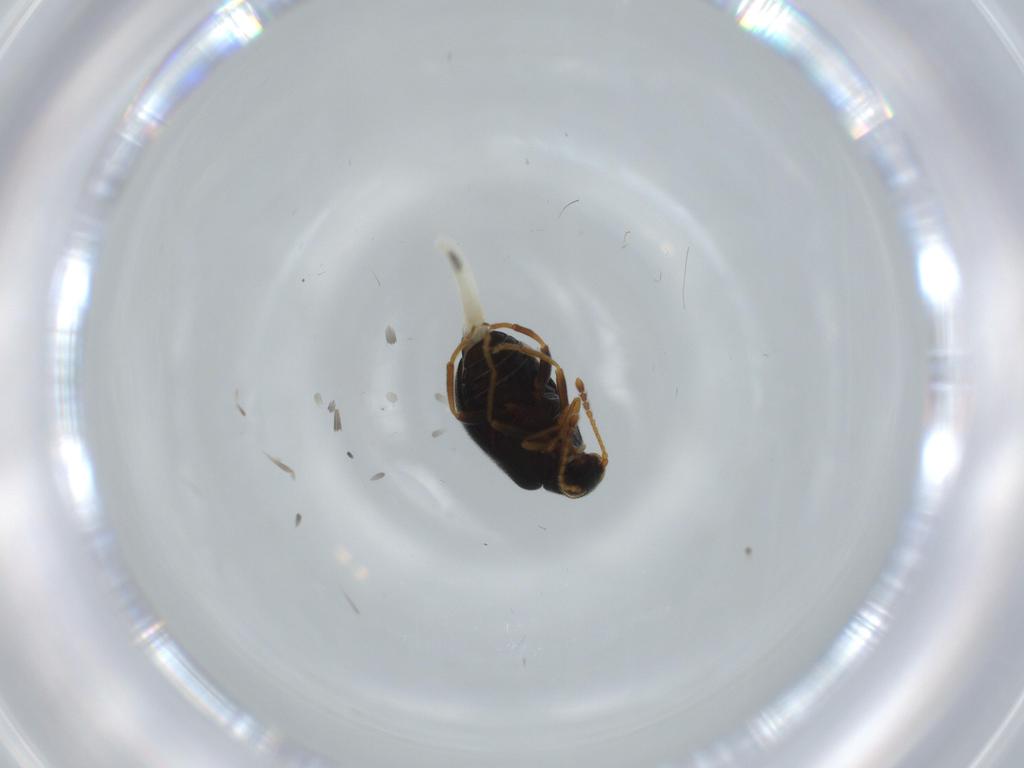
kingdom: Animalia
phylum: Arthropoda
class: Insecta
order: Coleoptera
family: Aderidae
